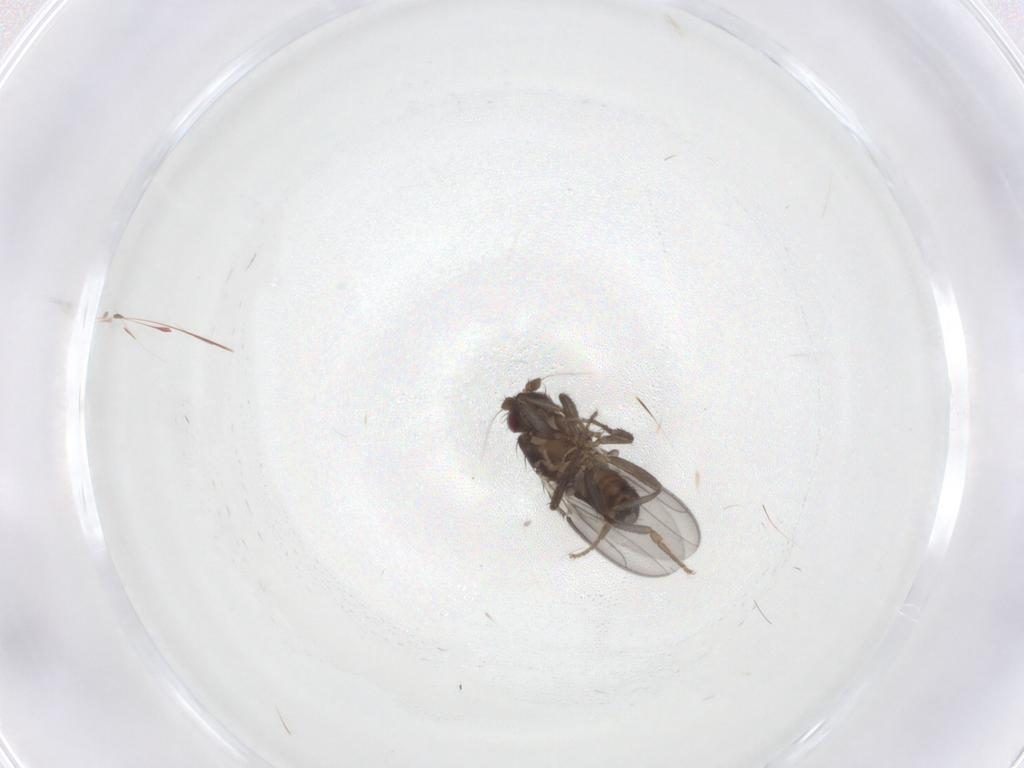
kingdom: Animalia
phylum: Arthropoda
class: Insecta
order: Diptera
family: Sphaeroceridae
